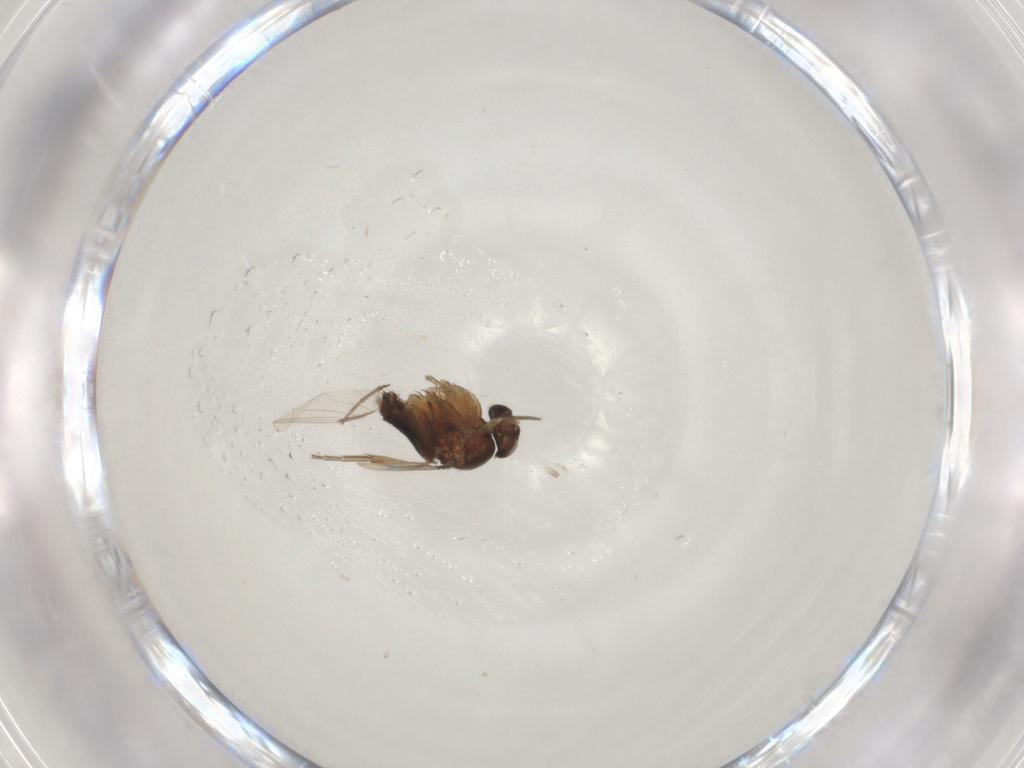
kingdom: Animalia
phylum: Arthropoda
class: Insecta
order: Diptera
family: Phoridae
